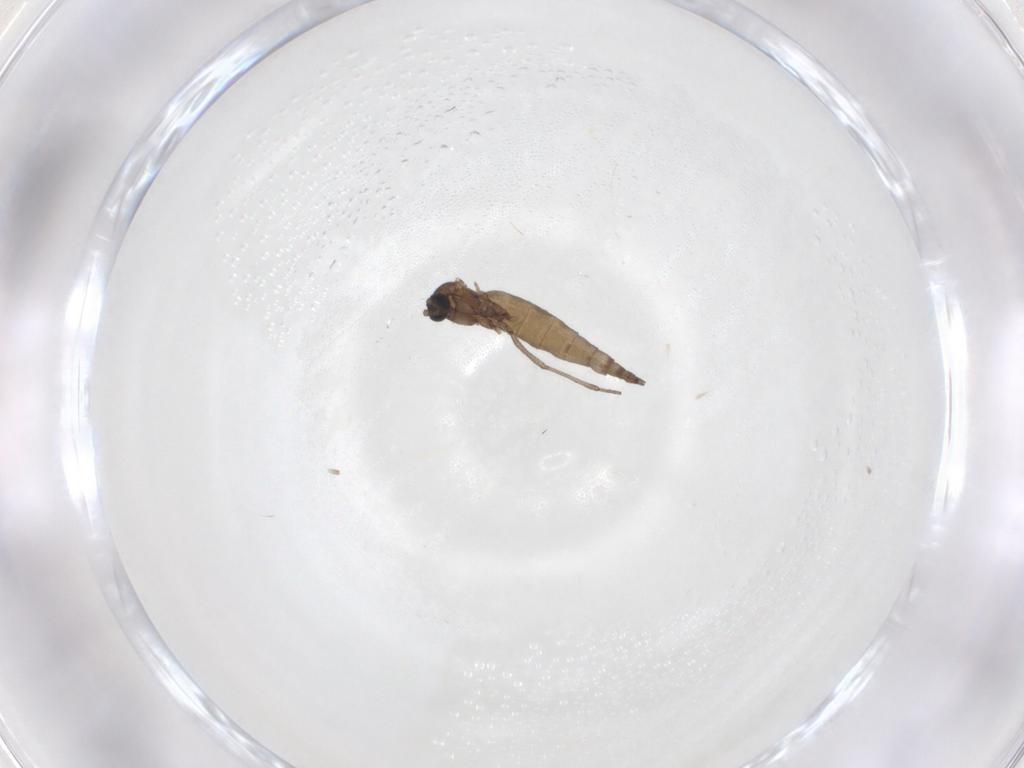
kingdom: Animalia
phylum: Arthropoda
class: Insecta
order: Diptera
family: Sciaridae
